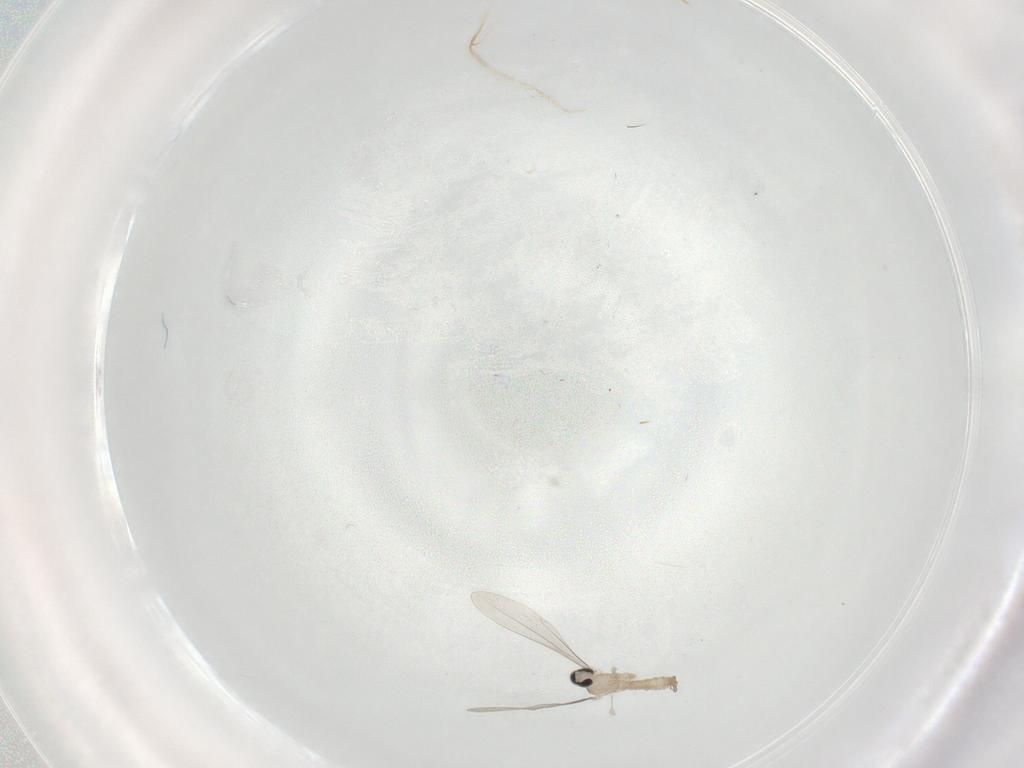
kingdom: Animalia
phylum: Arthropoda
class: Insecta
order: Diptera
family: Cecidomyiidae
